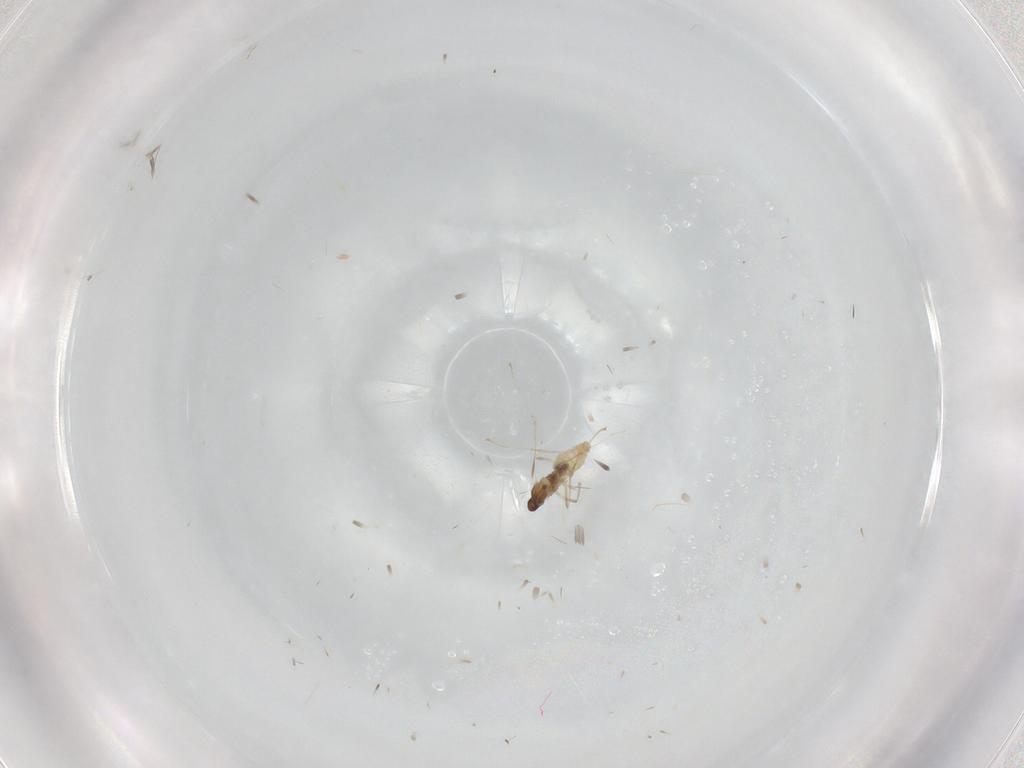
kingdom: Animalia
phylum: Arthropoda
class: Insecta
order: Diptera
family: Cecidomyiidae
